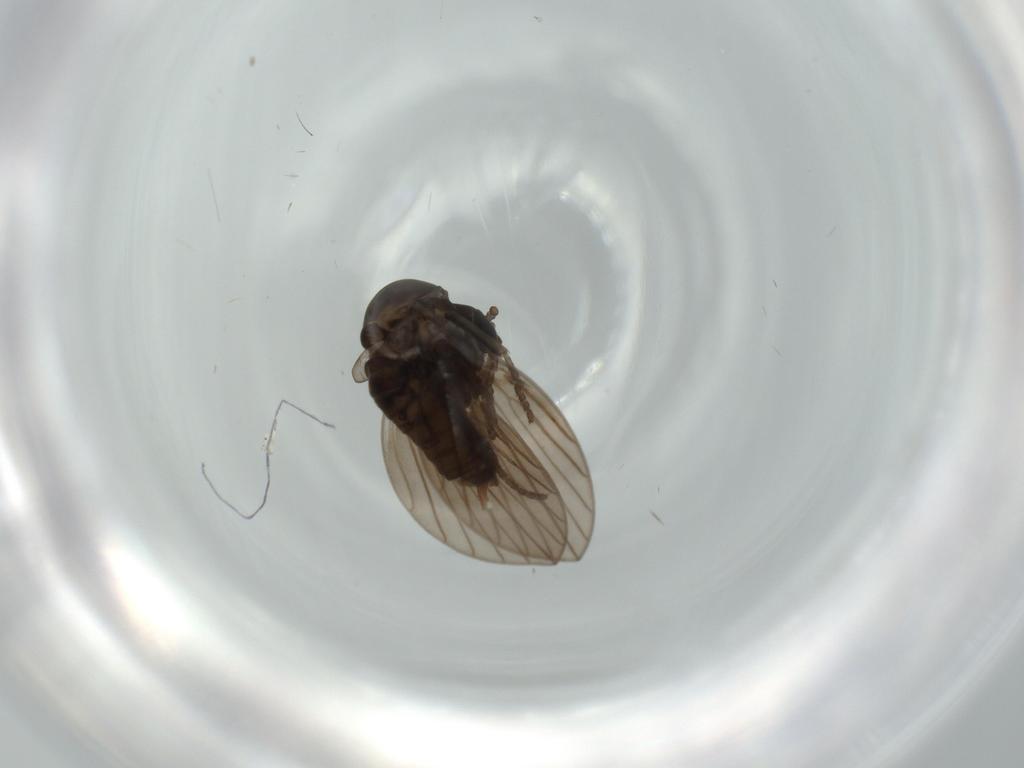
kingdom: Animalia
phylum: Arthropoda
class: Insecta
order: Diptera
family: Psychodidae
